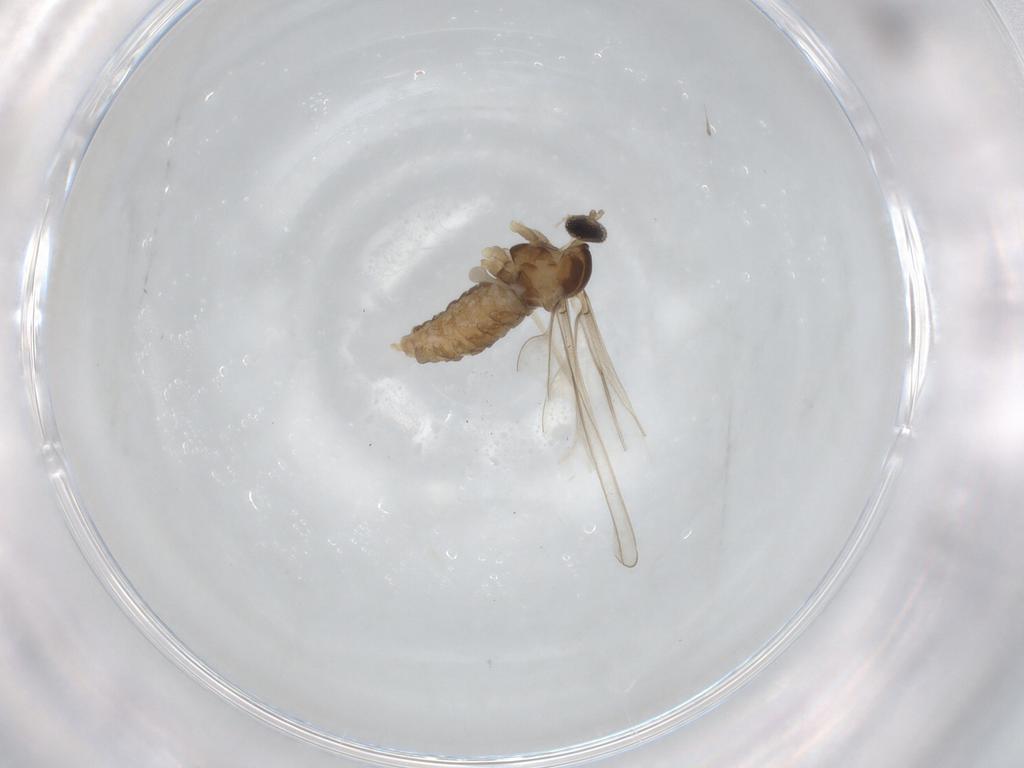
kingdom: Animalia
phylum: Arthropoda
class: Insecta
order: Diptera
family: Cecidomyiidae
